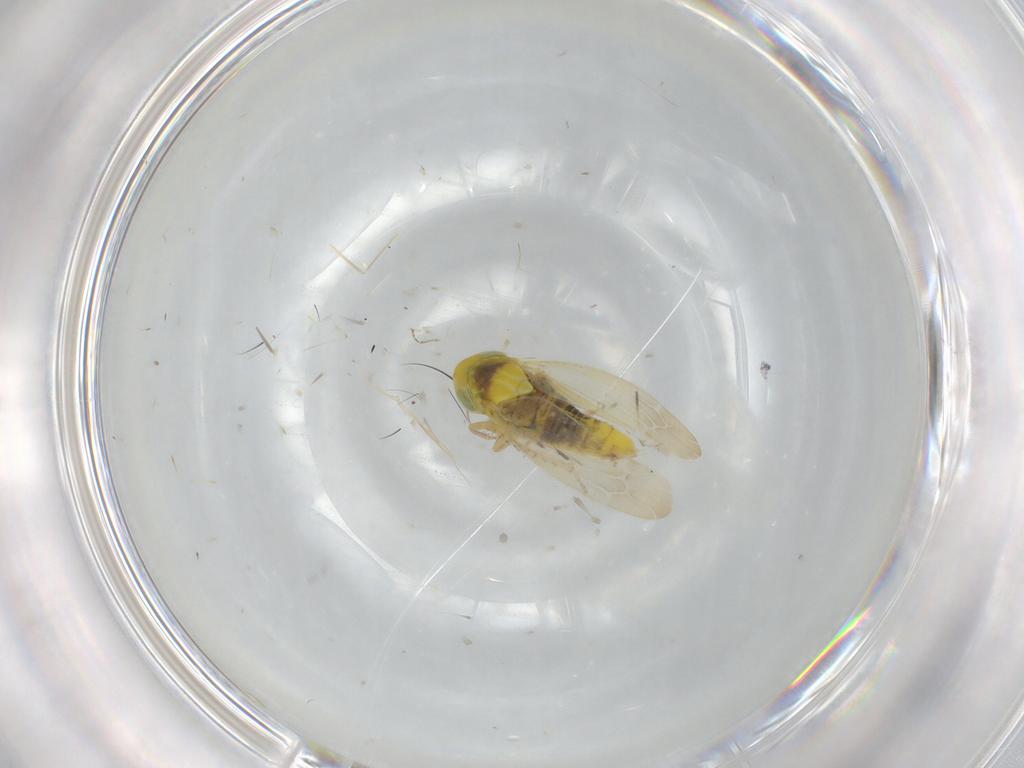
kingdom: Animalia
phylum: Arthropoda
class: Insecta
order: Hemiptera
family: Cicadellidae
